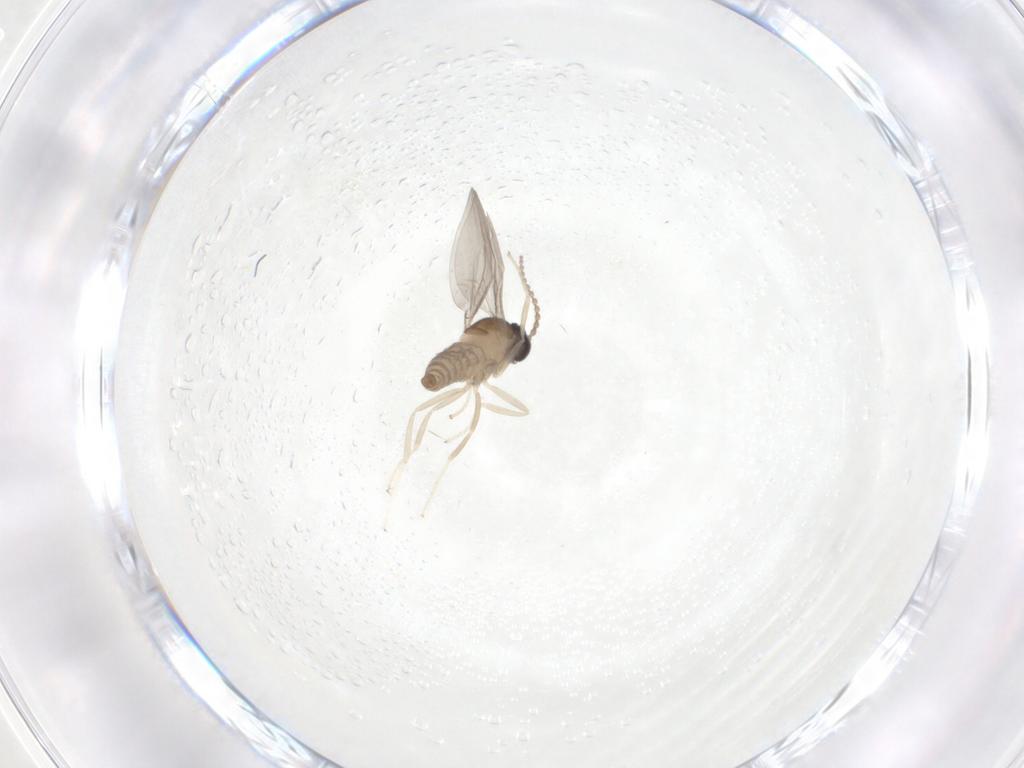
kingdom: Animalia
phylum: Arthropoda
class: Insecta
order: Diptera
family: Cecidomyiidae
